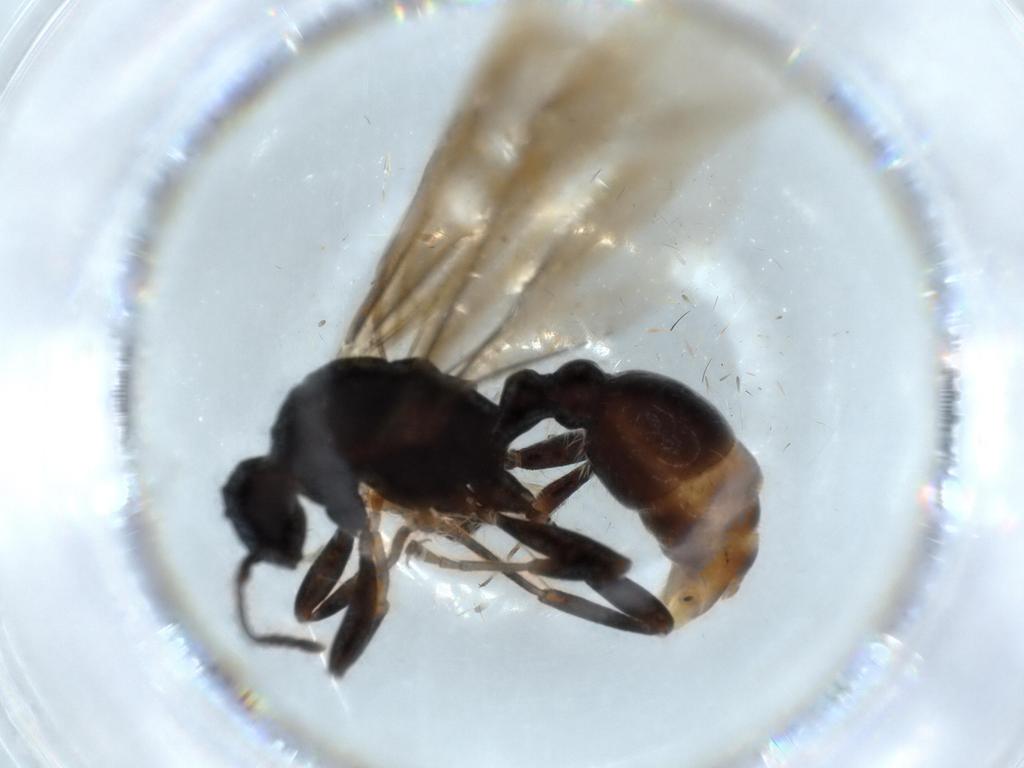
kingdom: Animalia
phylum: Arthropoda
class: Insecta
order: Hymenoptera
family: Formicidae
